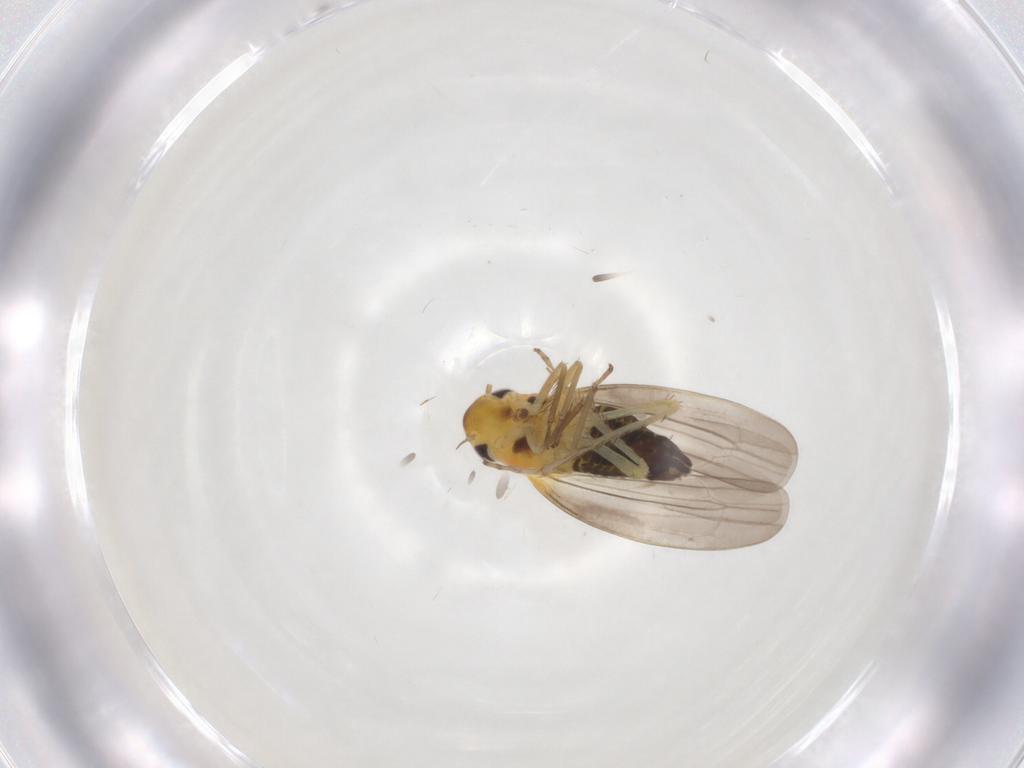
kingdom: Animalia
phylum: Arthropoda
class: Insecta
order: Hemiptera
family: Cicadellidae
